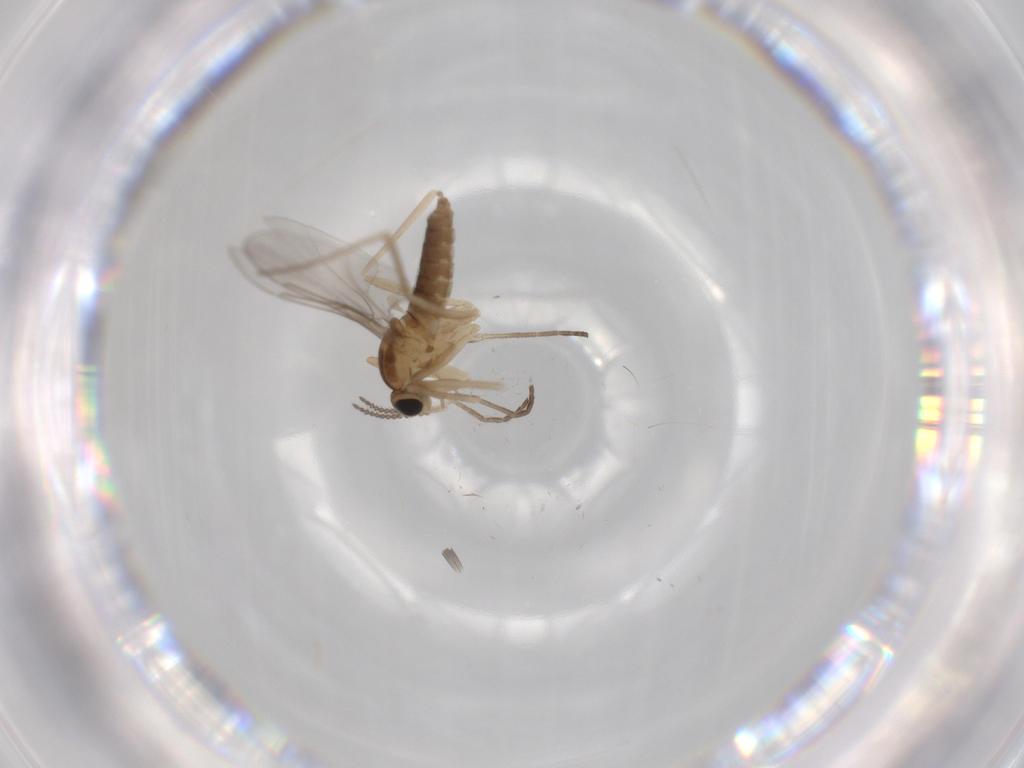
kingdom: Animalia
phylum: Arthropoda
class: Insecta
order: Diptera
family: Cecidomyiidae
